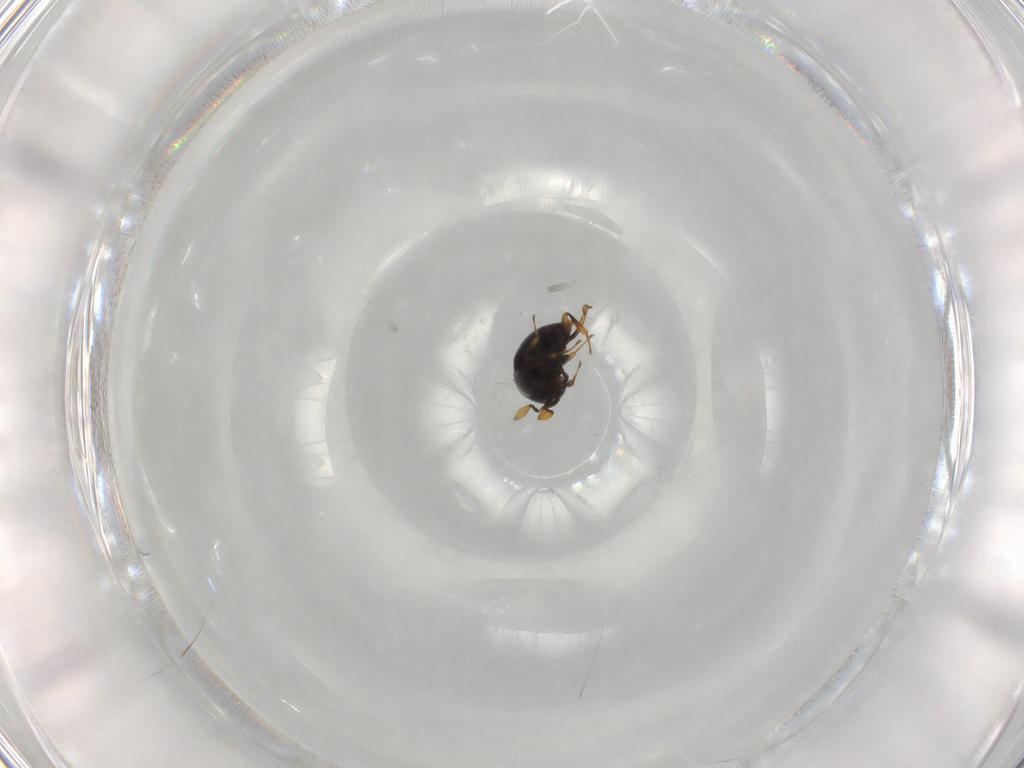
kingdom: Animalia
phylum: Arthropoda
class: Insecta
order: Hymenoptera
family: Scelionidae
